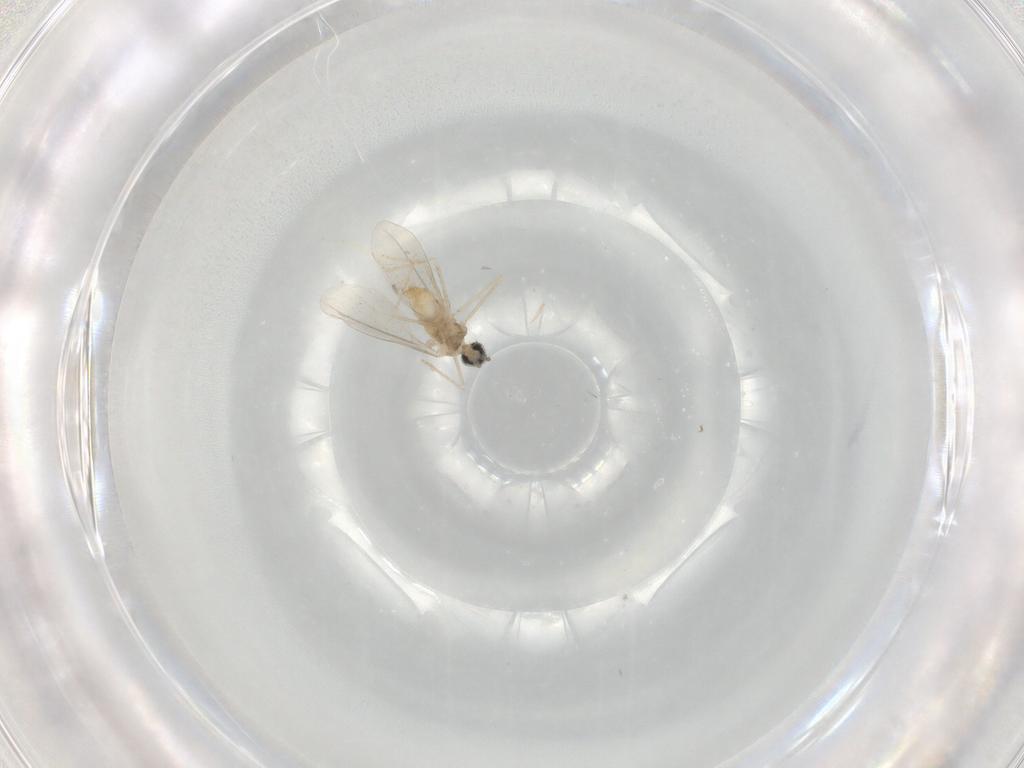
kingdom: Animalia
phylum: Arthropoda
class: Insecta
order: Diptera
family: Cecidomyiidae
